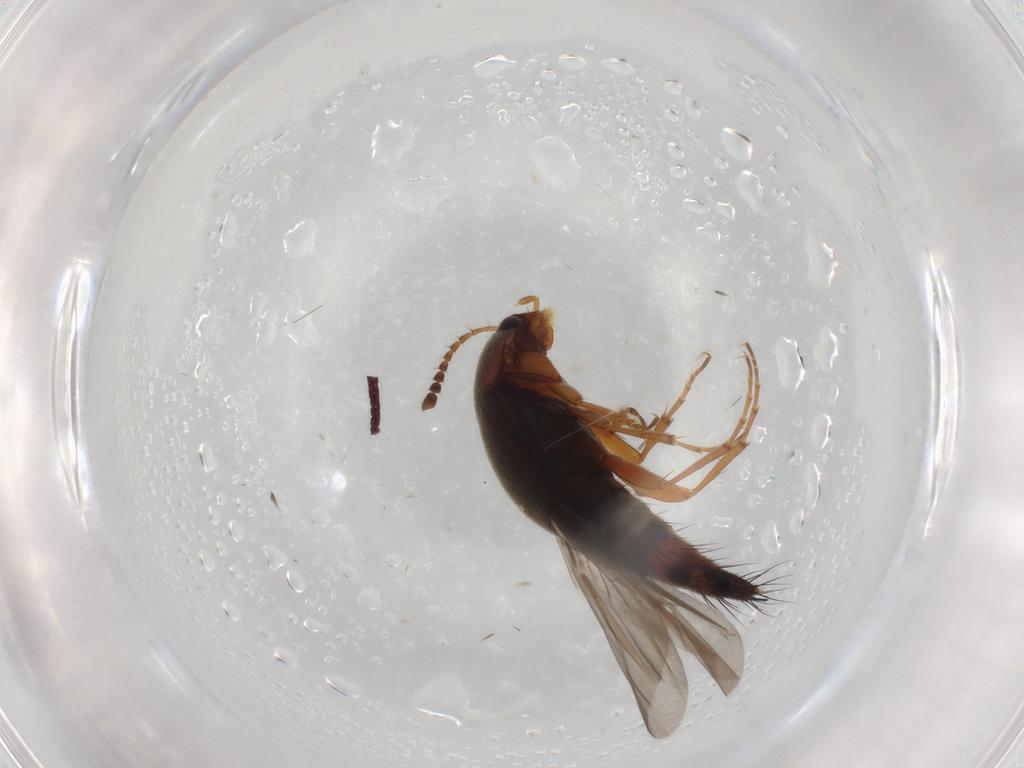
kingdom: Animalia
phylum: Arthropoda
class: Insecta
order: Coleoptera
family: Staphylinidae
